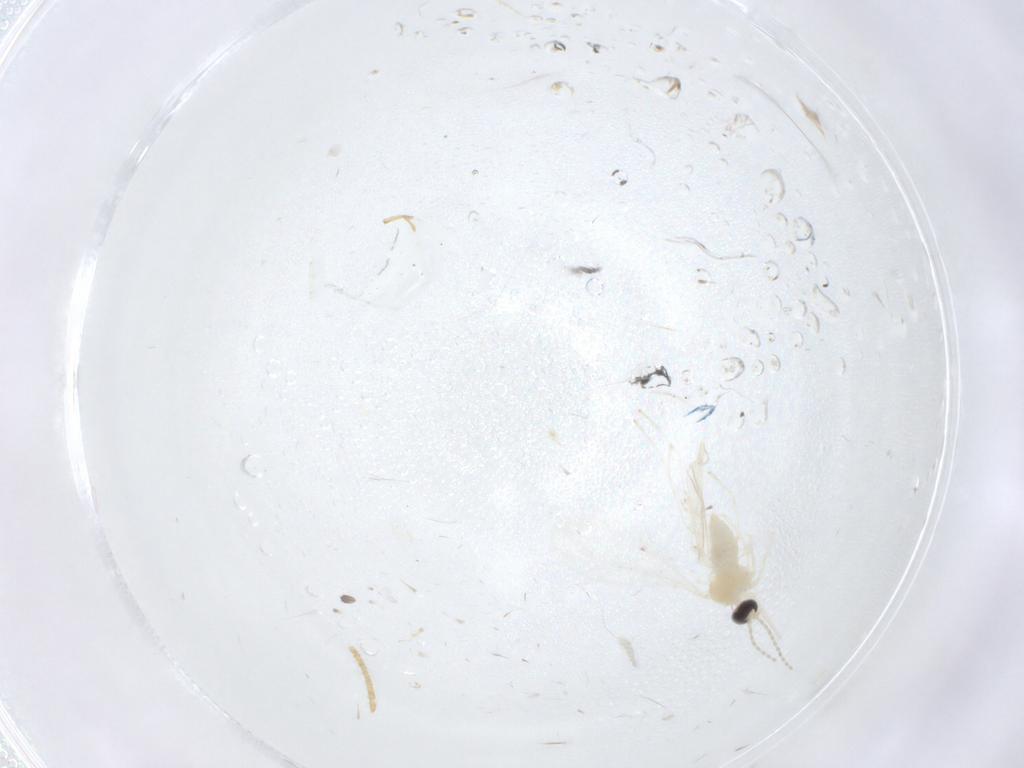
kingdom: Animalia
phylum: Arthropoda
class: Insecta
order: Diptera
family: Cecidomyiidae
